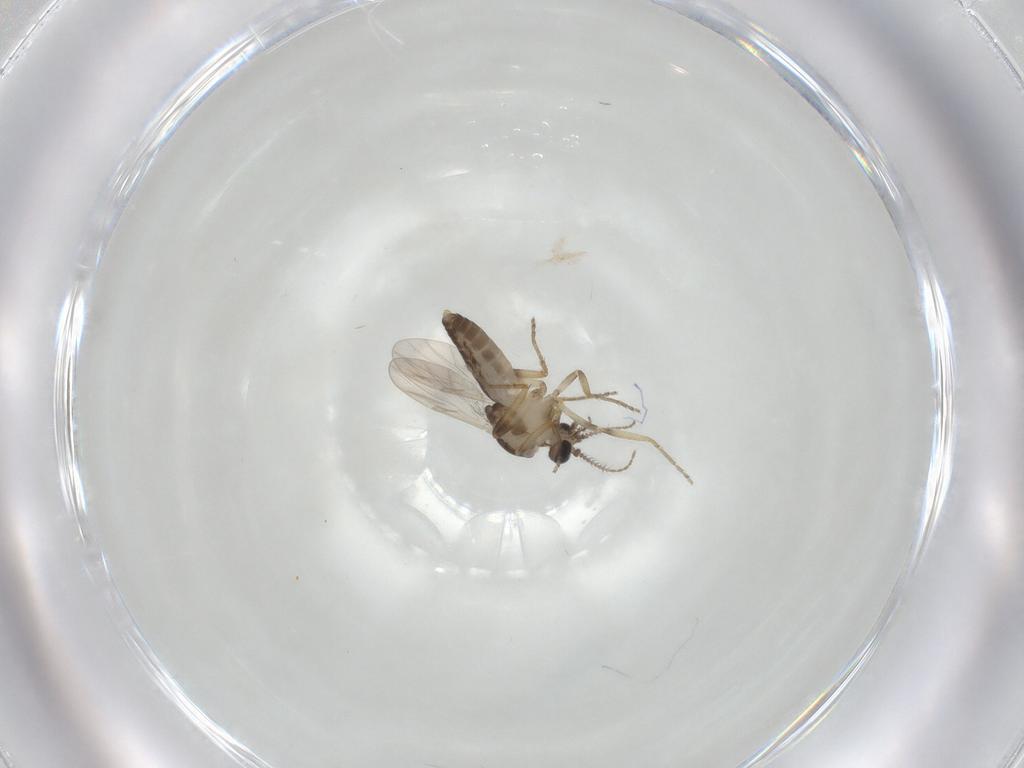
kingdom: Animalia
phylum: Arthropoda
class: Insecta
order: Diptera
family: Ceratopogonidae
